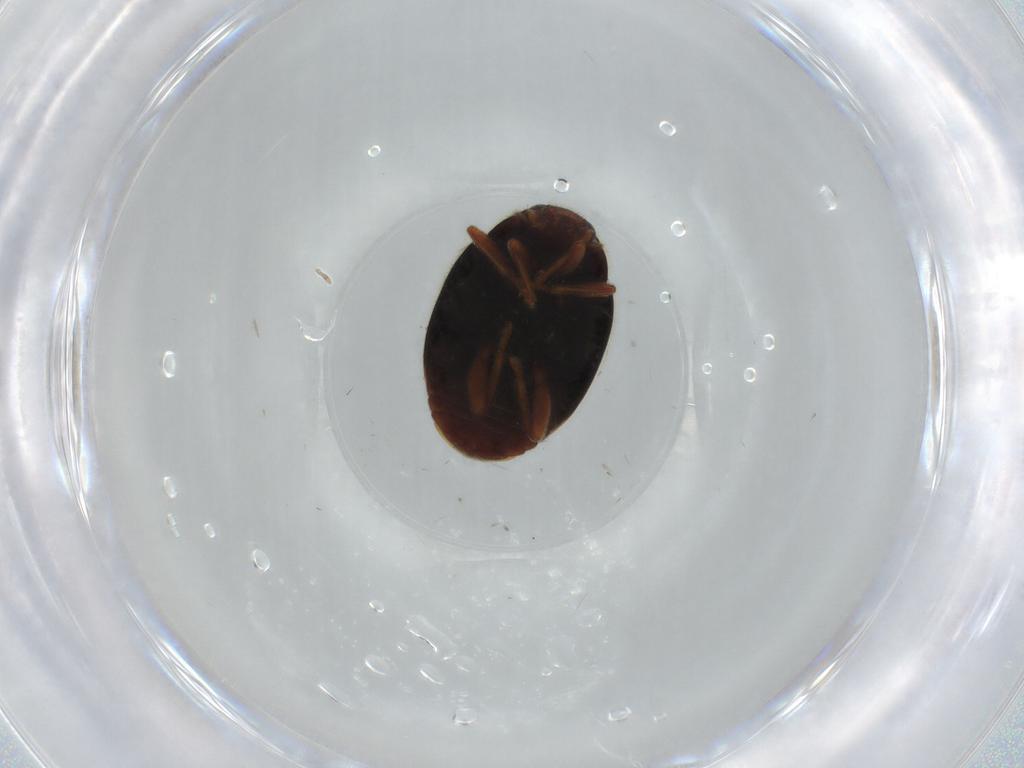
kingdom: Animalia
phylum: Arthropoda
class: Insecta
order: Coleoptera
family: Coccinellidae
